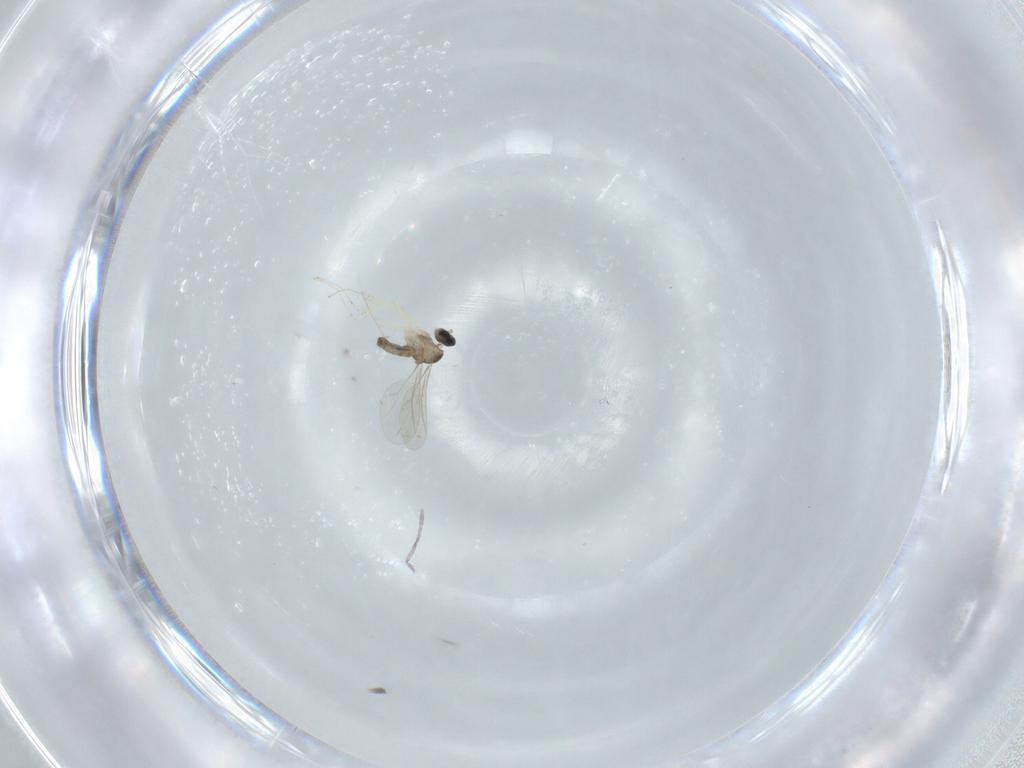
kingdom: Animalia
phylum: Arthropoda
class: Insecta
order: Diptera
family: Cecidomyiidae
